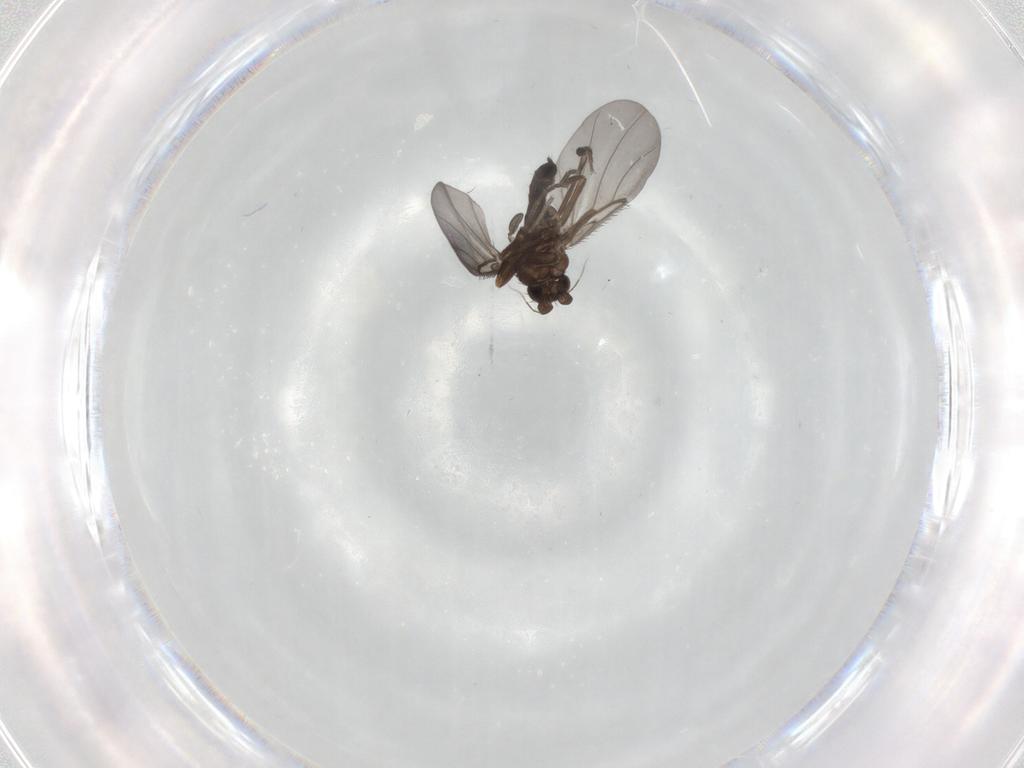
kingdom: Animalia
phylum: Arthropoda
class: Insecta
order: Diptera
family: Phoridae
